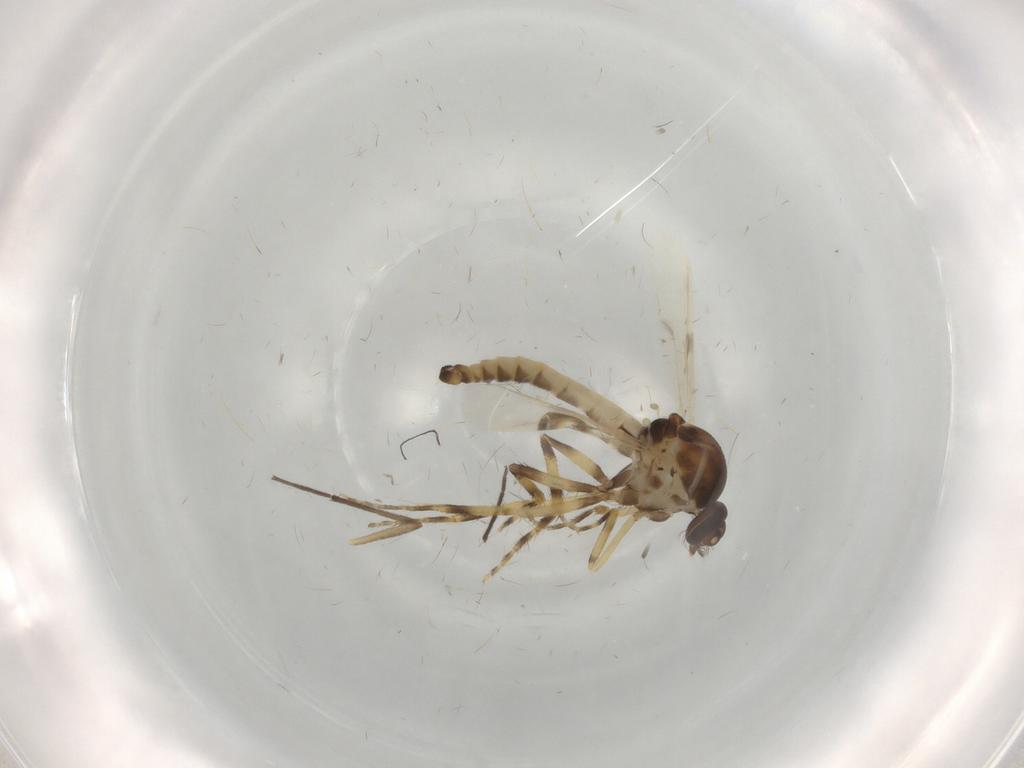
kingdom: Animalia
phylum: Arthropoda
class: Insecta
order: Diptera
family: Ceratopogonidae
